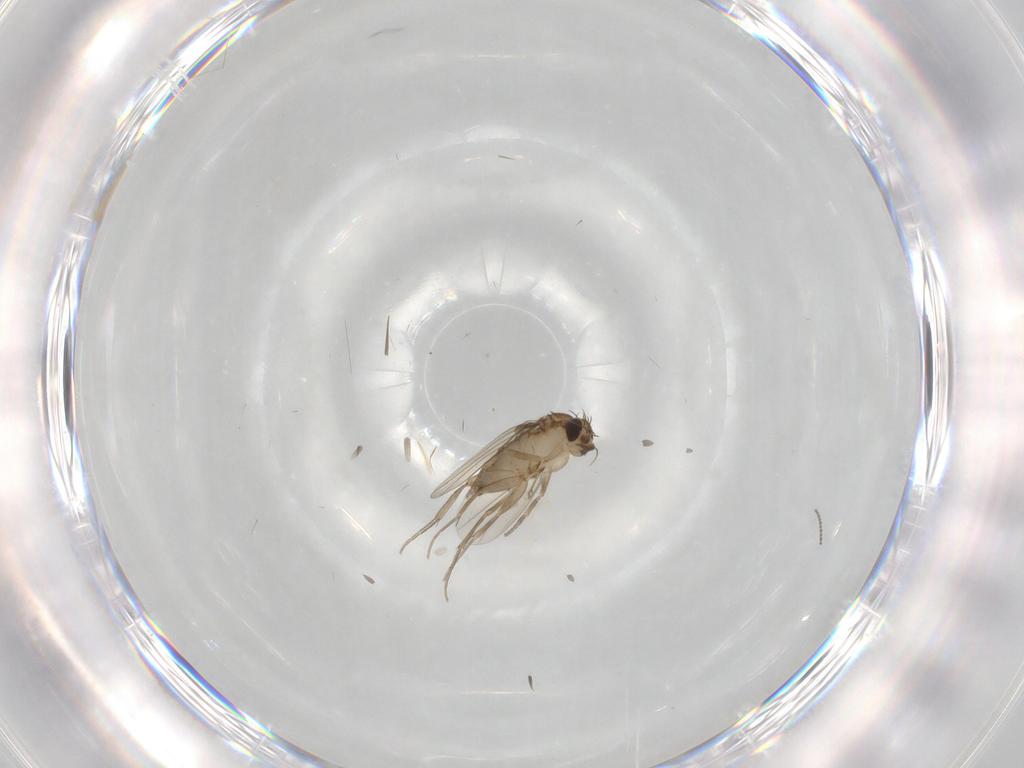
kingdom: Animalia
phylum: Arthropoda
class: Insecta
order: Diptera
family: Phoridae
